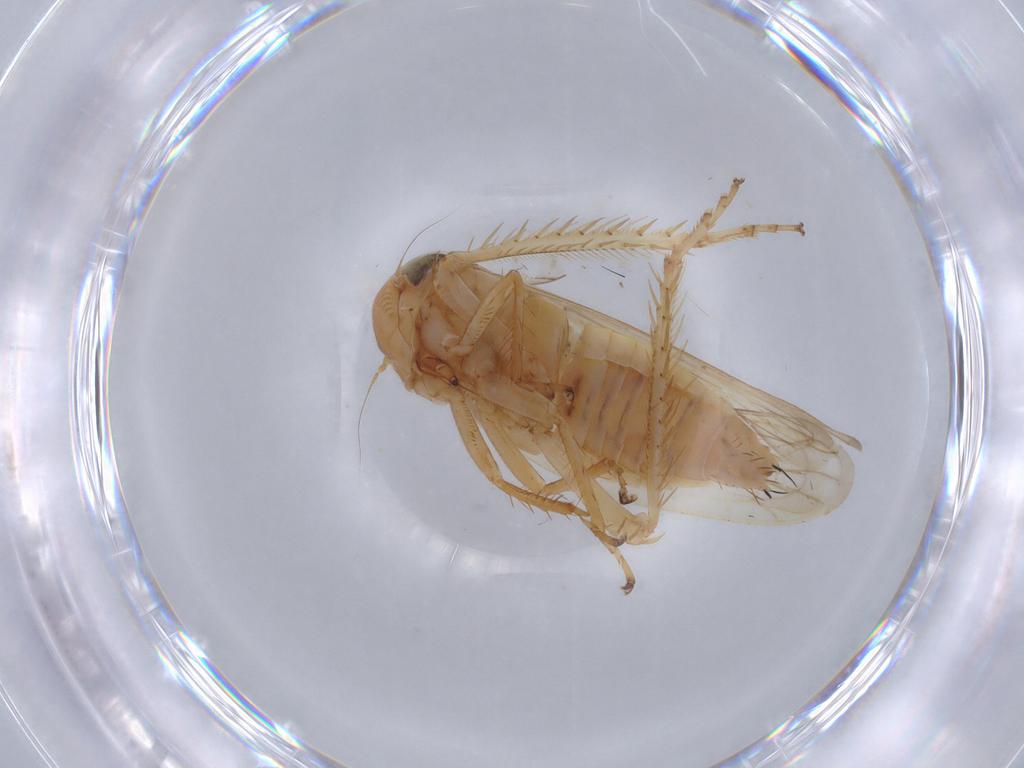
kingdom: Animalia
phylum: Arthropoda
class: Insecta
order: Hemiptera
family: Cicadellidae
